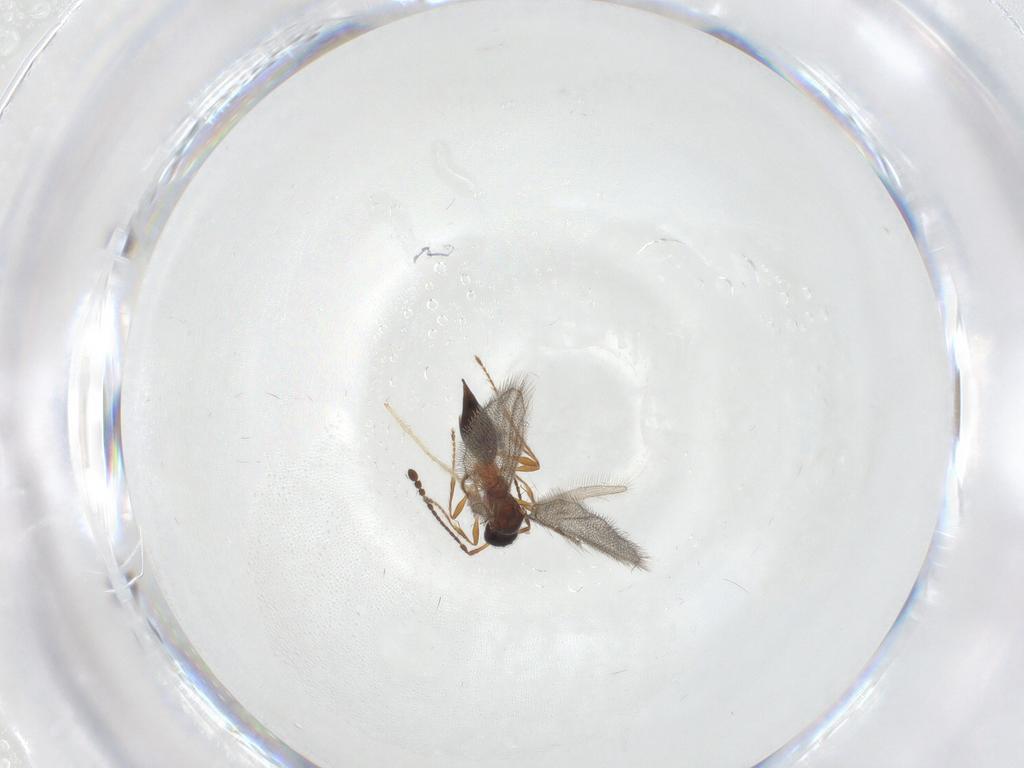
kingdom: Animalia
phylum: Arthropoda
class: Insecta
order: Hymenoptera
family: Diapriidae
